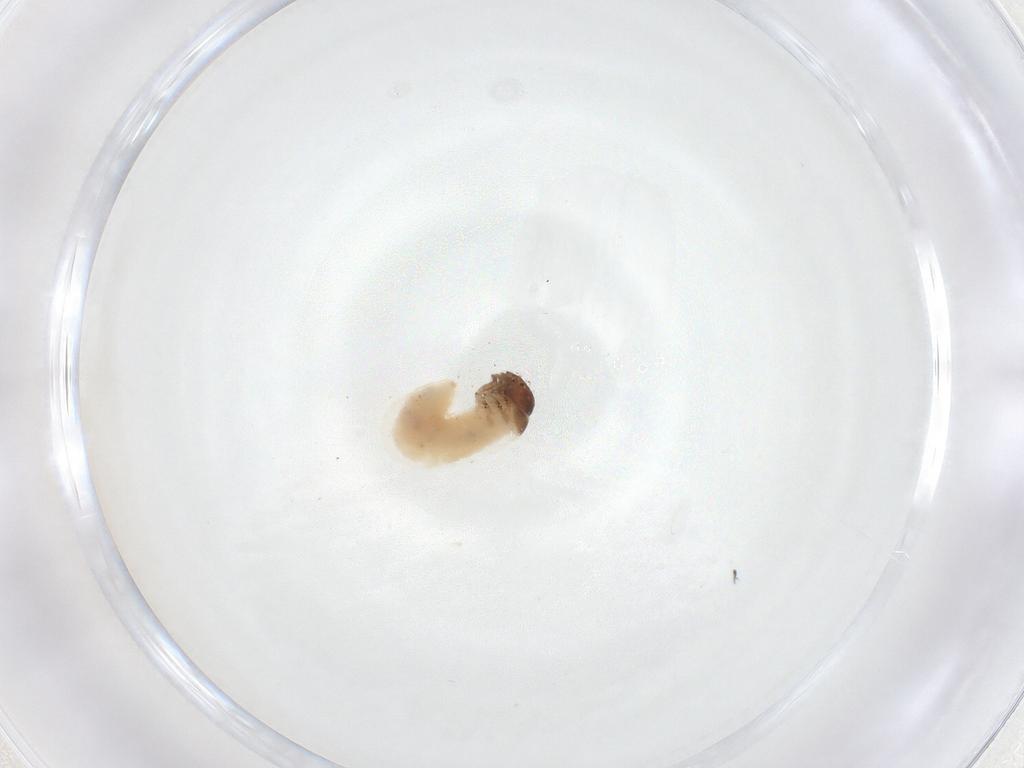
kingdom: Animalia
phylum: Arthropoda
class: Insecta
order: Coleoptera
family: Chrysomelidae
